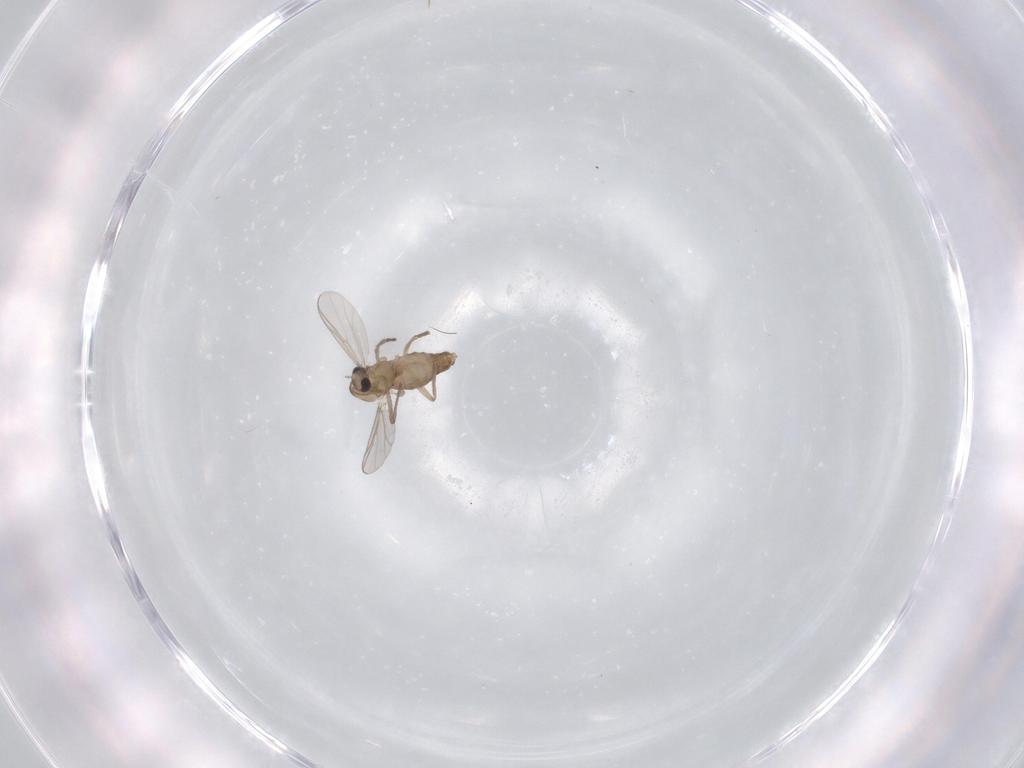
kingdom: Animalia
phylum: Arthropoda
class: Insecta
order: Diptera
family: Chironomidae
